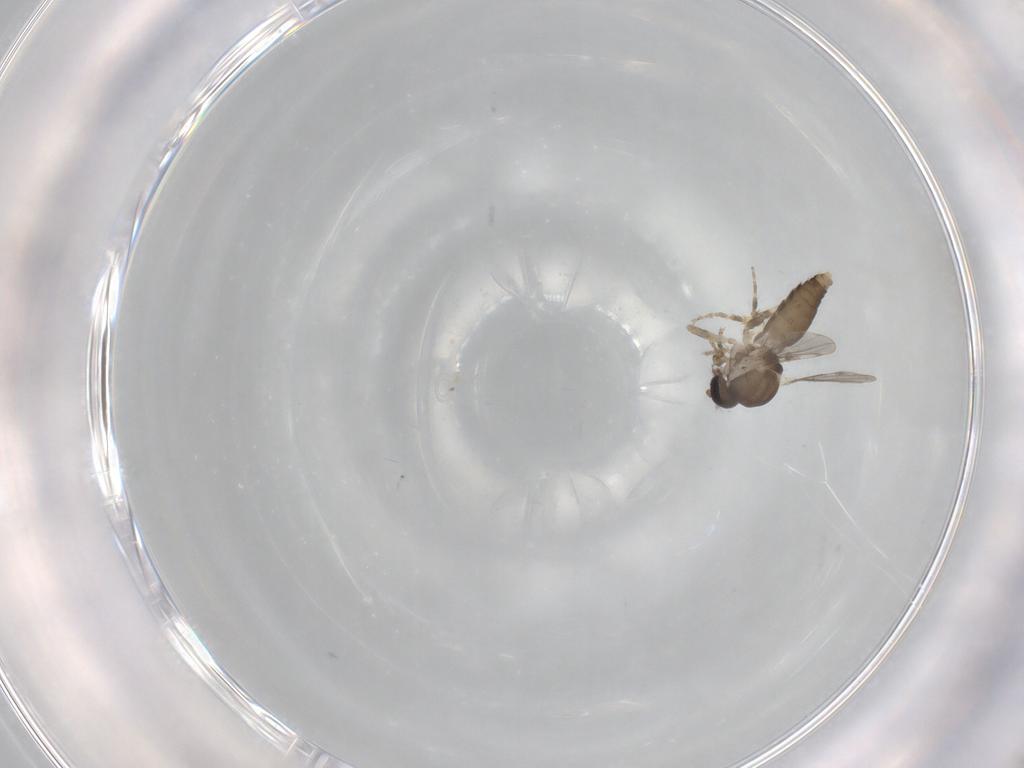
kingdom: Animalia
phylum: Arthropoda
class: Insecta
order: Diptera
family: Ceratopogonidae
